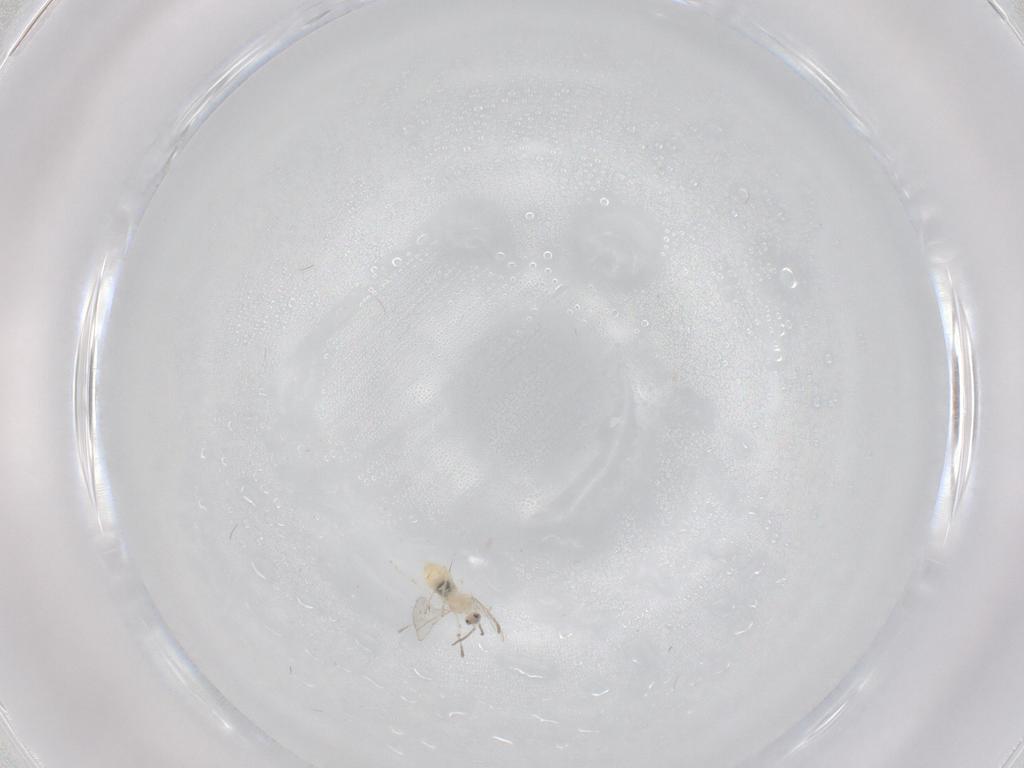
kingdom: Animalia
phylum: Arthropoda
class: Insecta
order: Diptera
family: Cecidomyiidae
